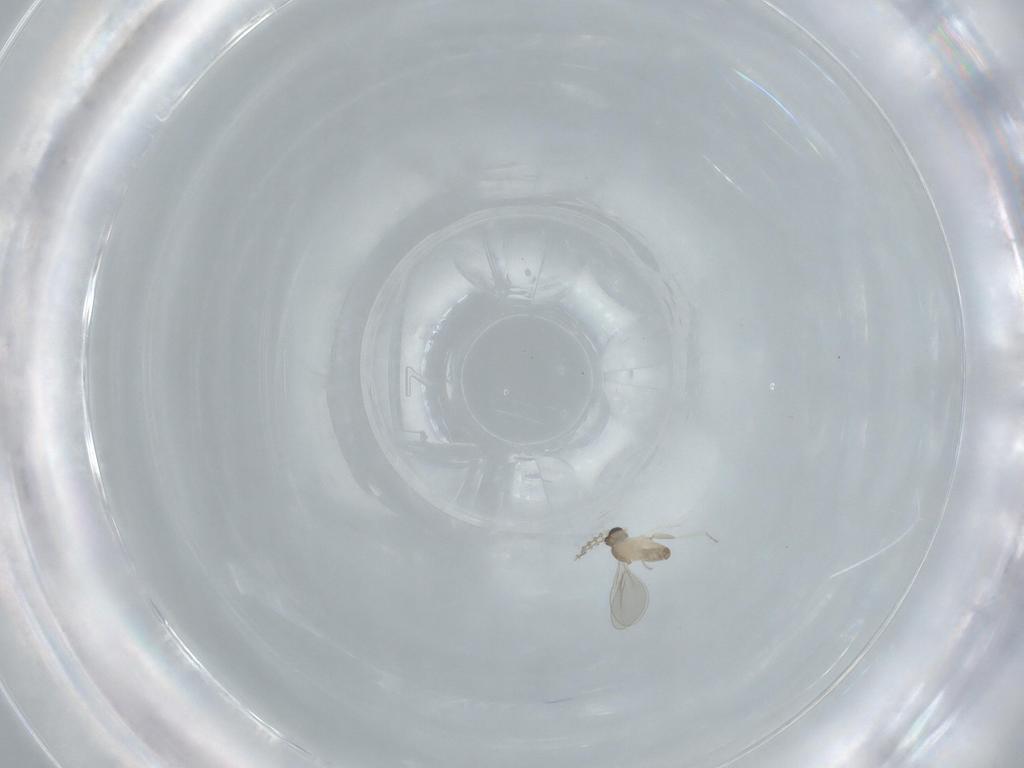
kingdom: Animalia
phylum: Arthropoda
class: Insecta
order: Diptera
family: Cecidomyiidae
